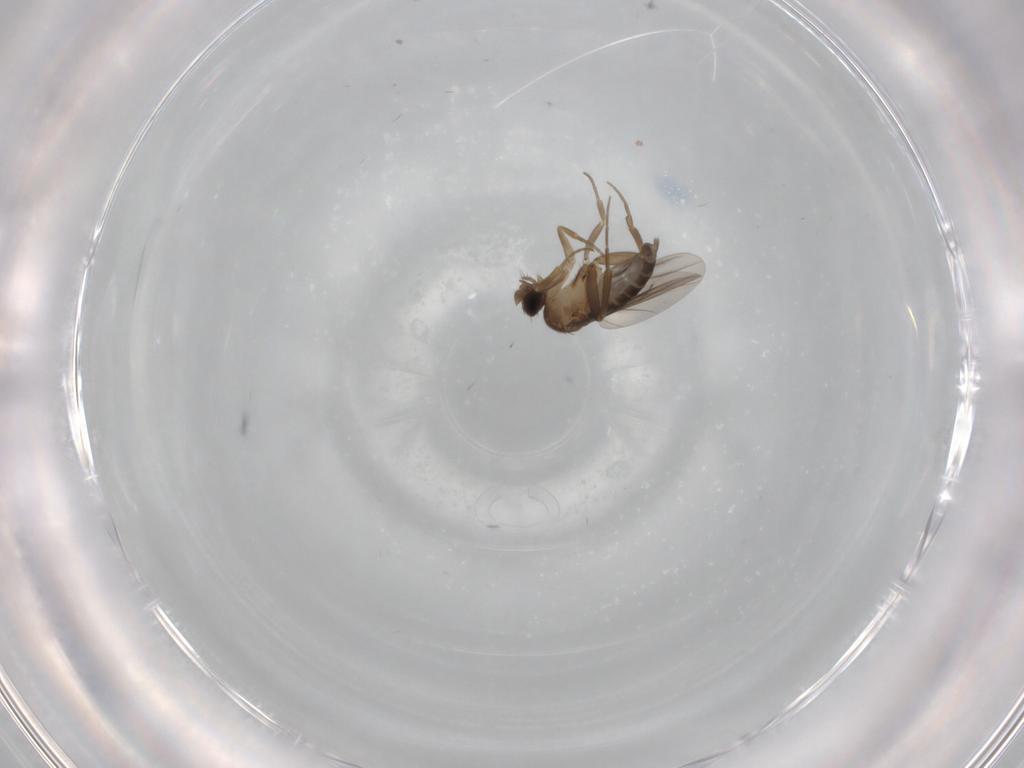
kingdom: Animalia
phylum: Arthropoda
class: Insecta
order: Diptera
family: Phoridae
